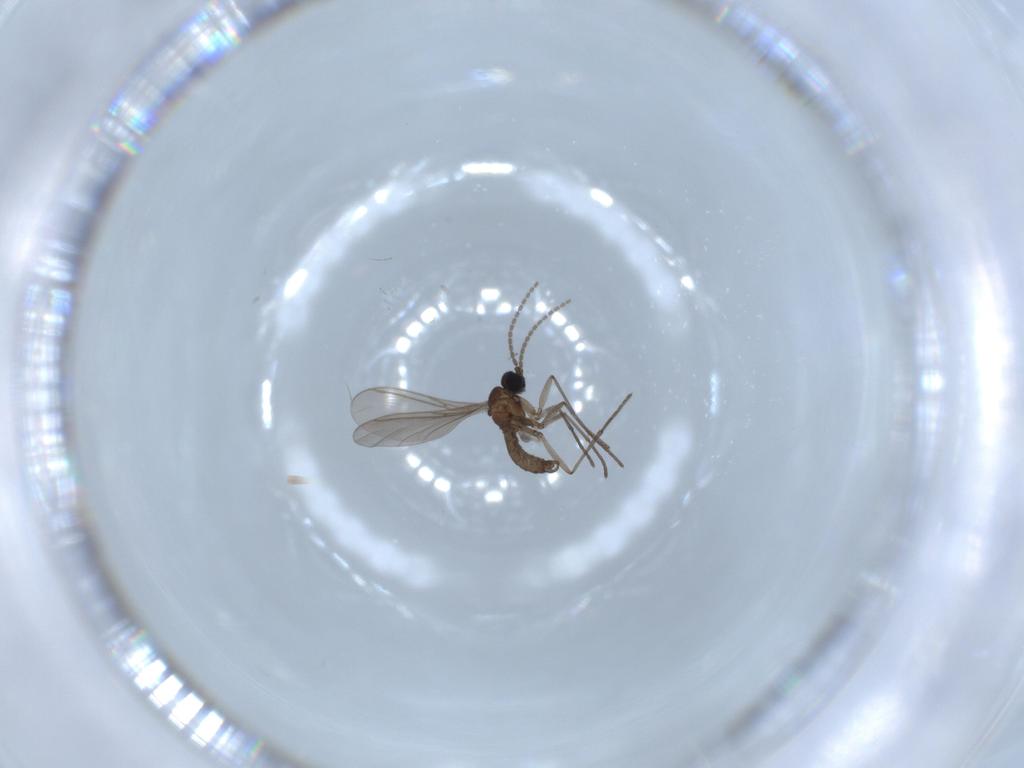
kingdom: Animalia
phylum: Arthropoda
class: Insecta
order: Diptera
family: Sciaridae
